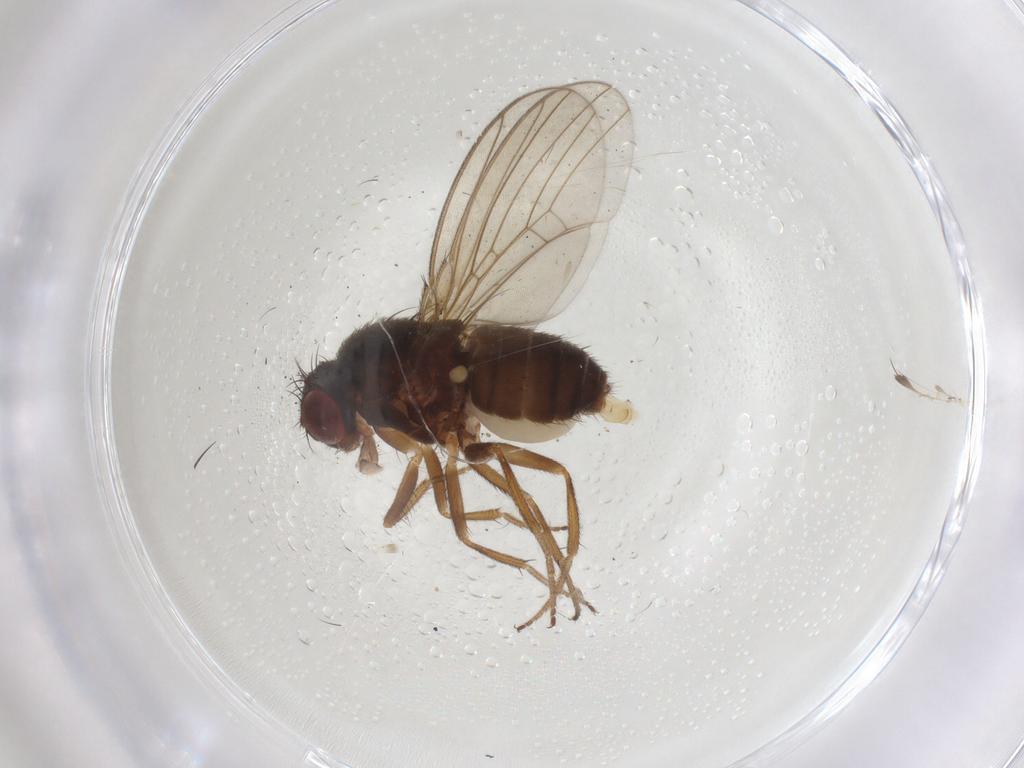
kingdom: Animalia
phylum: Arthropoda
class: Insecta
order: Diptera
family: Drosophilidae
